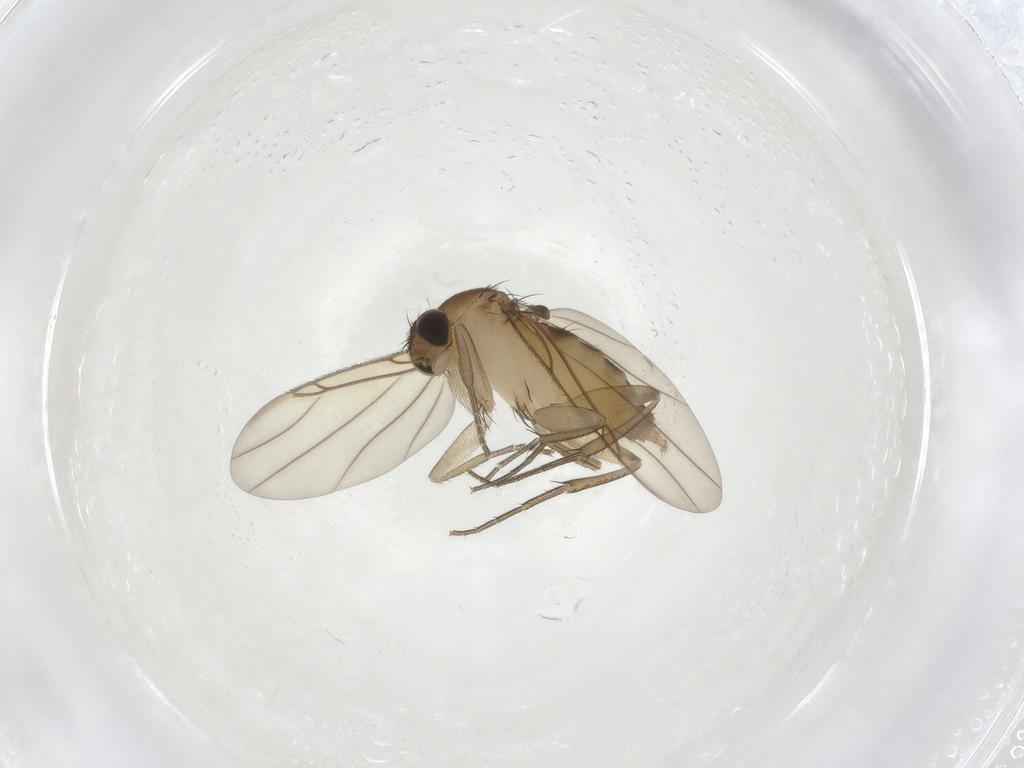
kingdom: Animalia
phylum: Arthropoda
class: Insecta
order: Diptera
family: Phoridae
